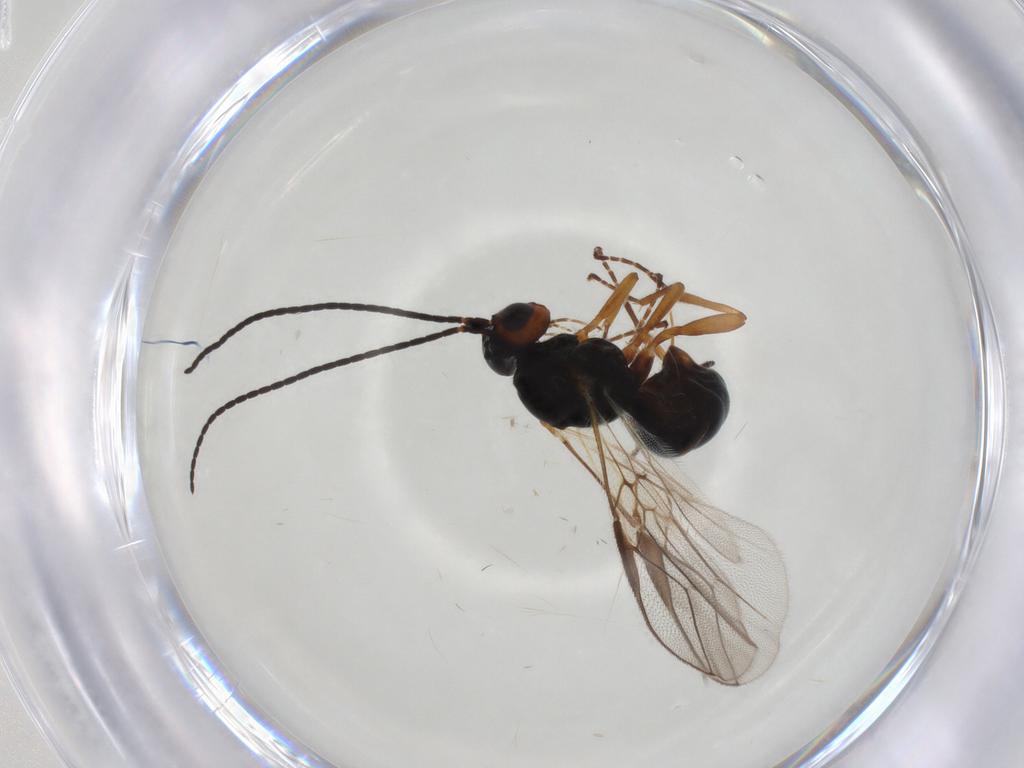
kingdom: Animalia
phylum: Arthropoda
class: Insecta
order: Hymenoptera
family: Braconidae
